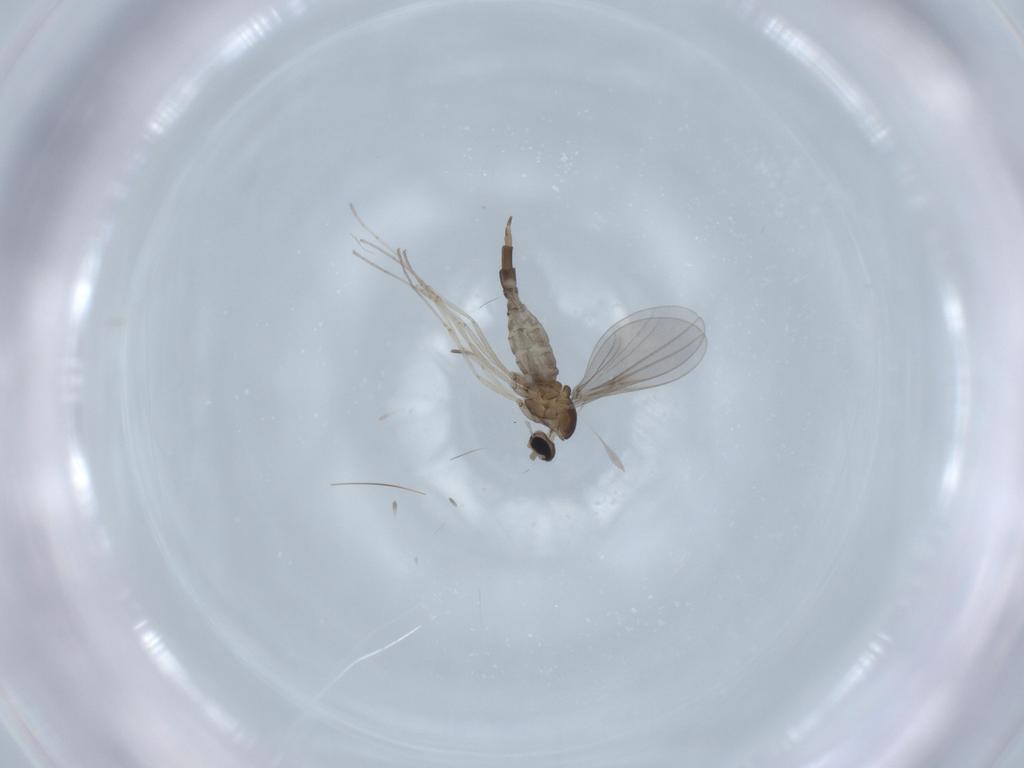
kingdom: Animalia
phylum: Arthropoda
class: Insecta
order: Diptera
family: Cecidomyiidae
